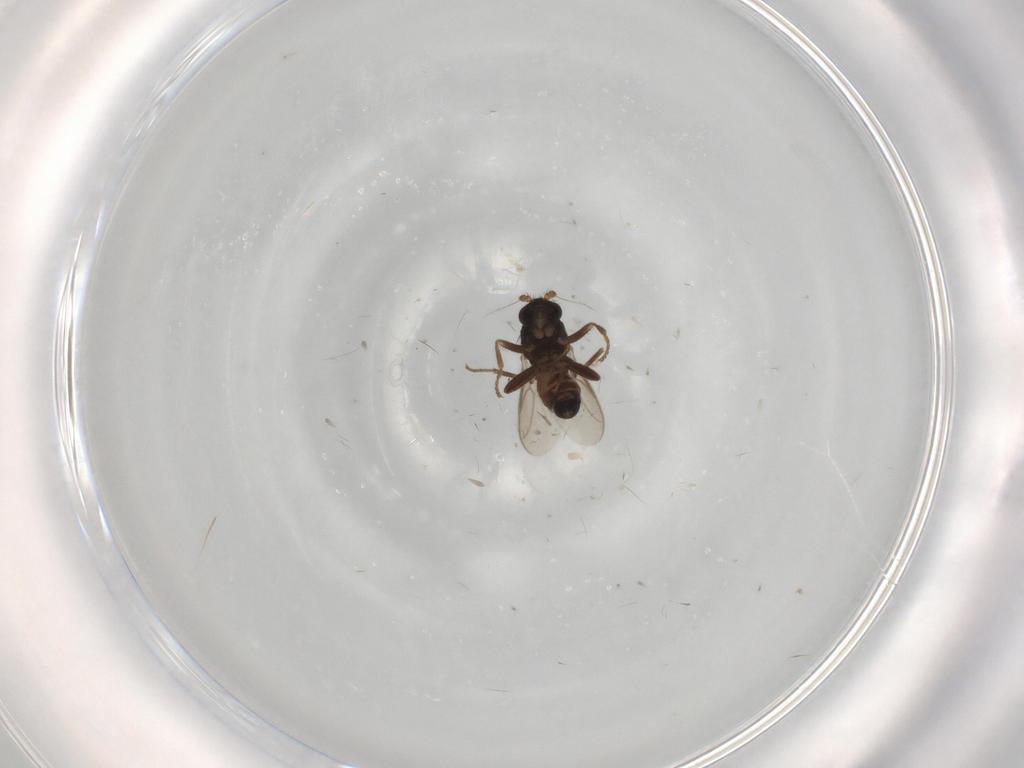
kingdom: Animalia
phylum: Arthropoda
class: Insecta
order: Diptera
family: Sphaeroceridae
